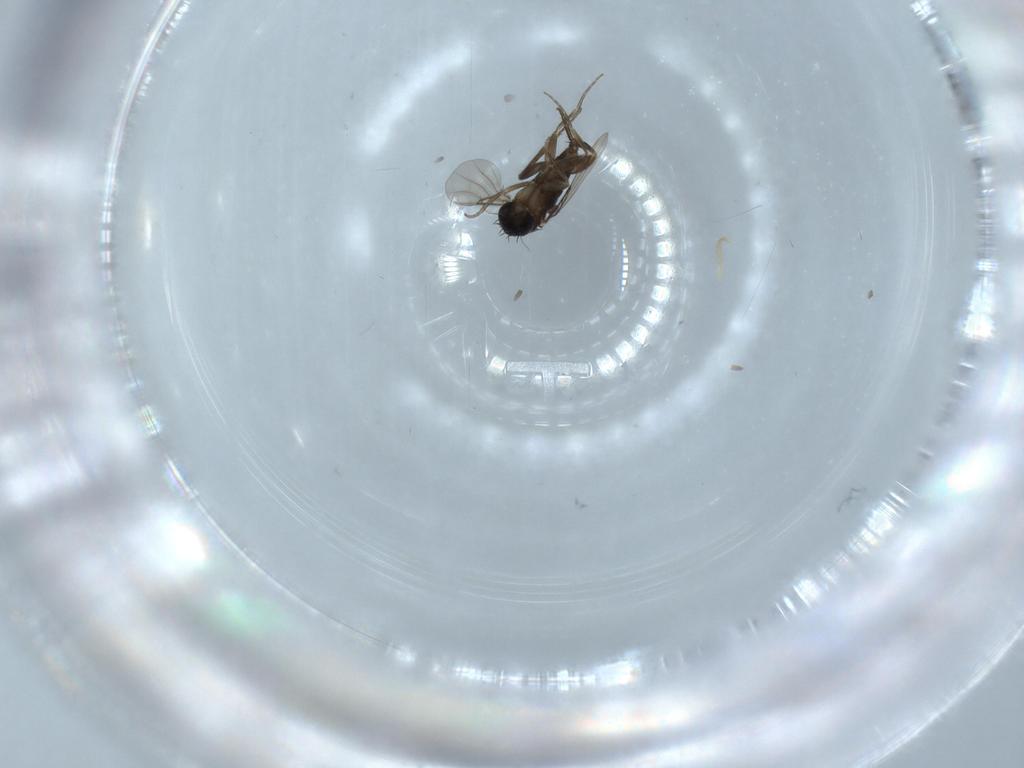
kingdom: Animalia
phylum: Arthropoda
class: Insecta
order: Diptera
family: Phoridae
